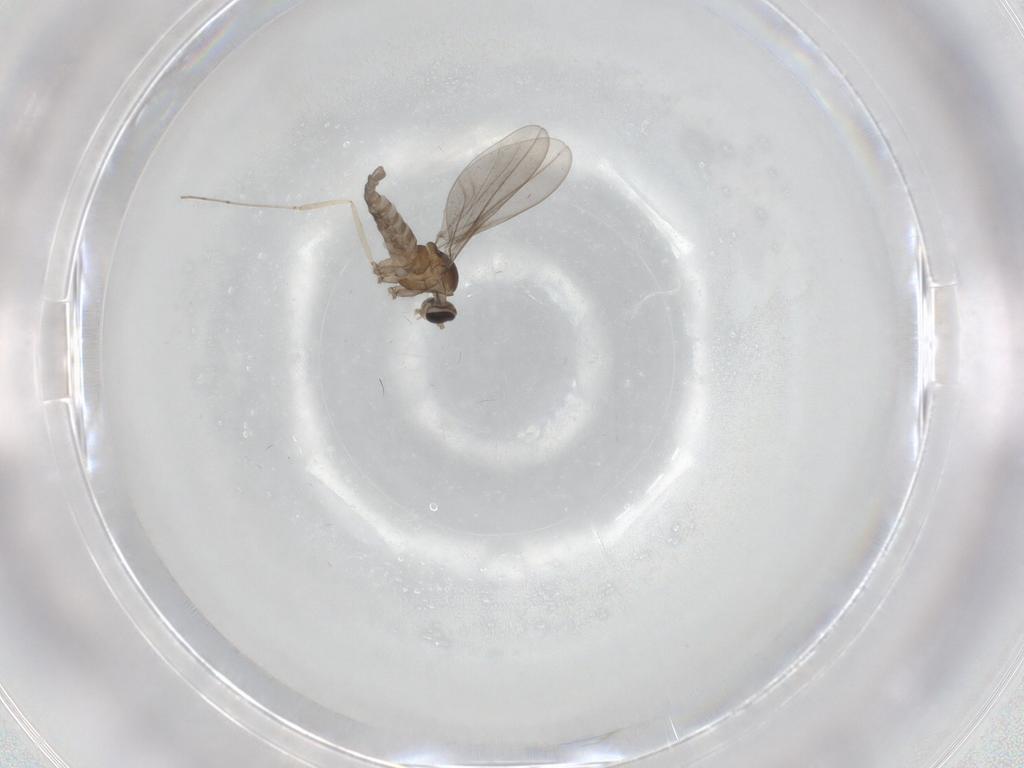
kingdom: Animalia
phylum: Arthropoda
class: Insecta
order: Diptera
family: Cecidomyiidae
